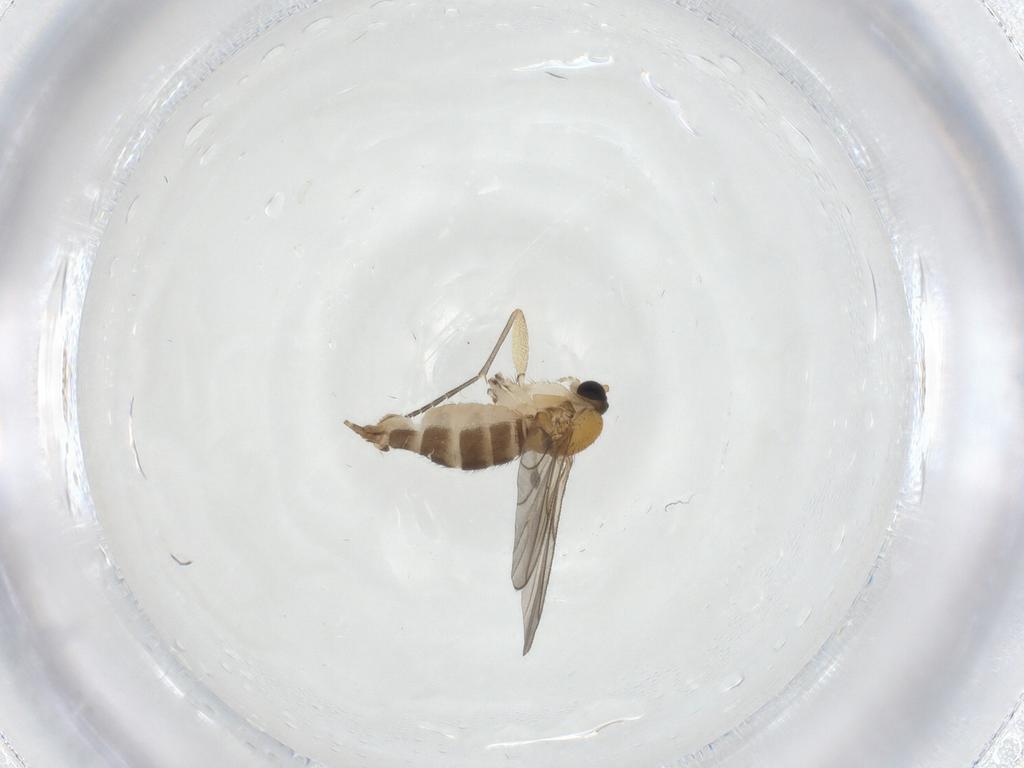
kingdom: Animalia
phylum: Arthropoda
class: Insecta
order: Diptera
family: Sciaridae
